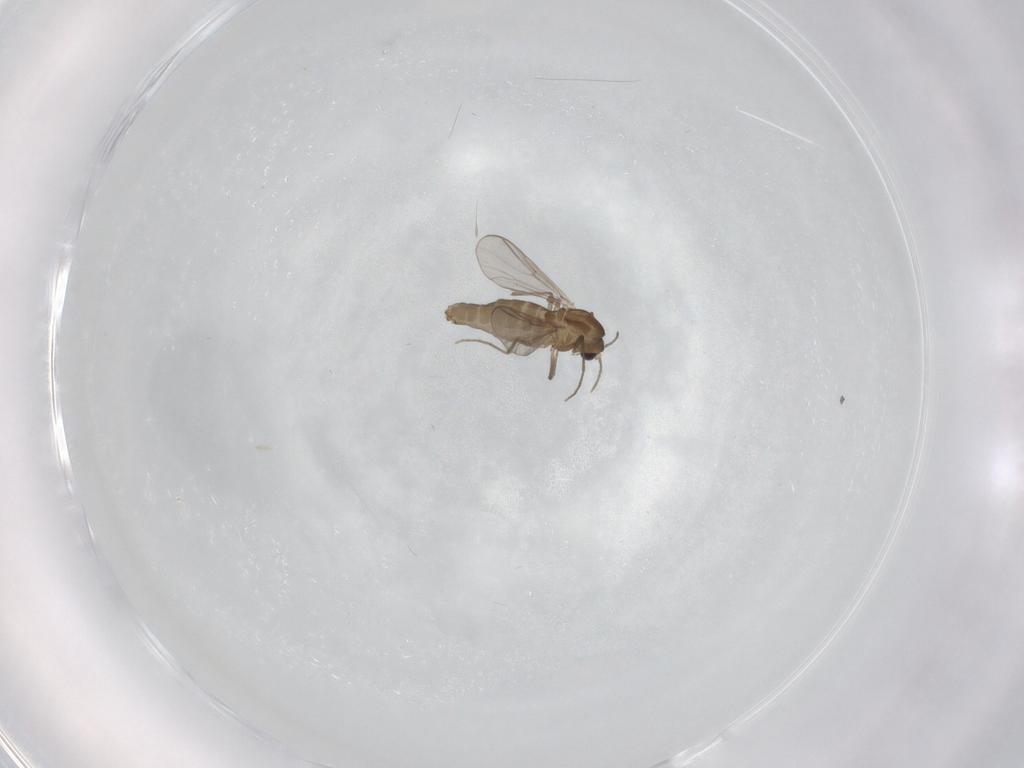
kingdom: Animalia
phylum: Arthropoda
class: Insecta
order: Diptera
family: Chironomidae
